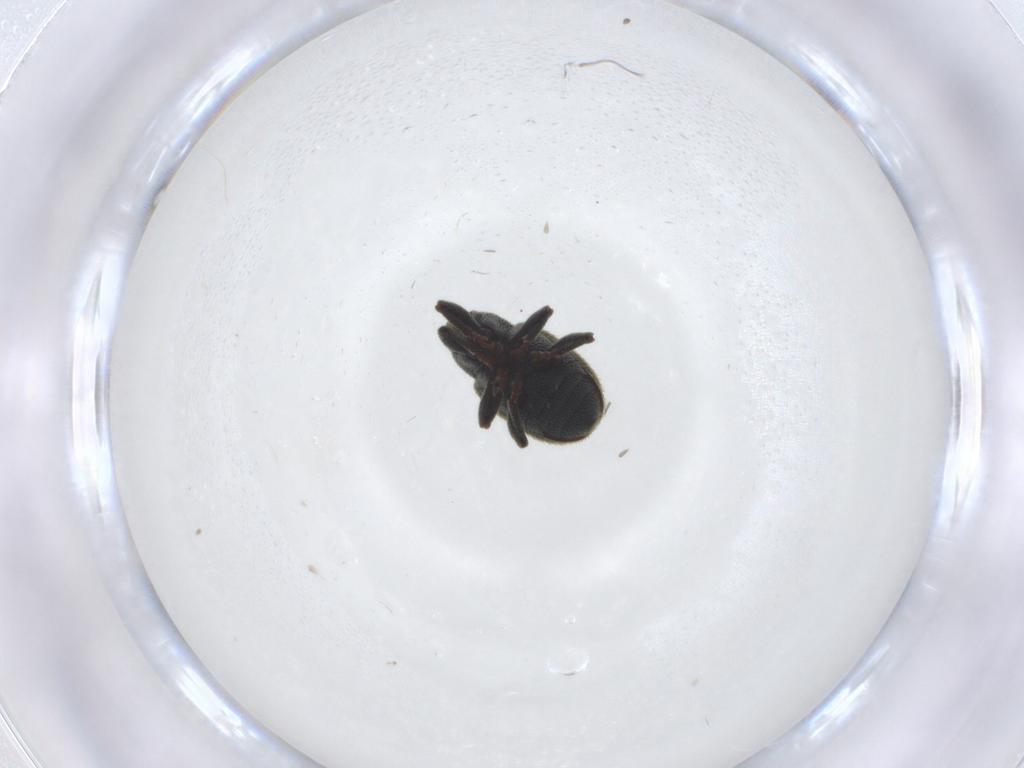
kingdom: Animalia
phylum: Arthropoda
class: Insecta
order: Coleoptera
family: Curculionidae
